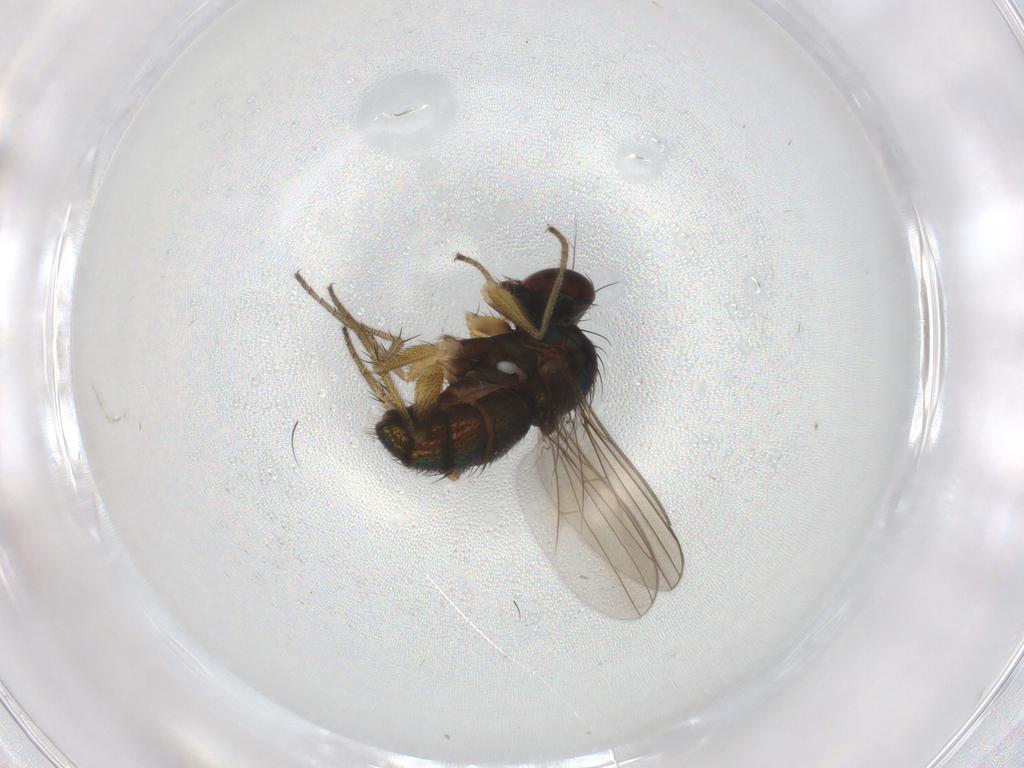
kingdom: Animalia
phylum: Arthropoda
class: Insecta
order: Diptera
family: Dolichopodidae
